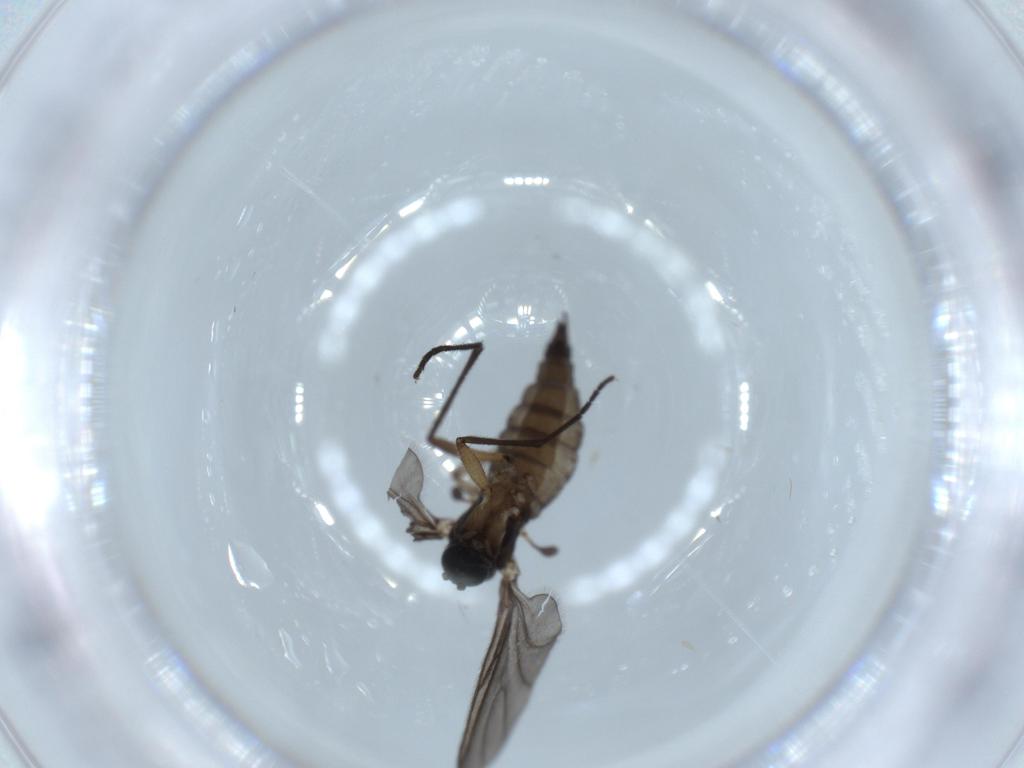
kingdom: Animalia
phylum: Arthropoda
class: Insecta
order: Diptera
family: Sciaridae
